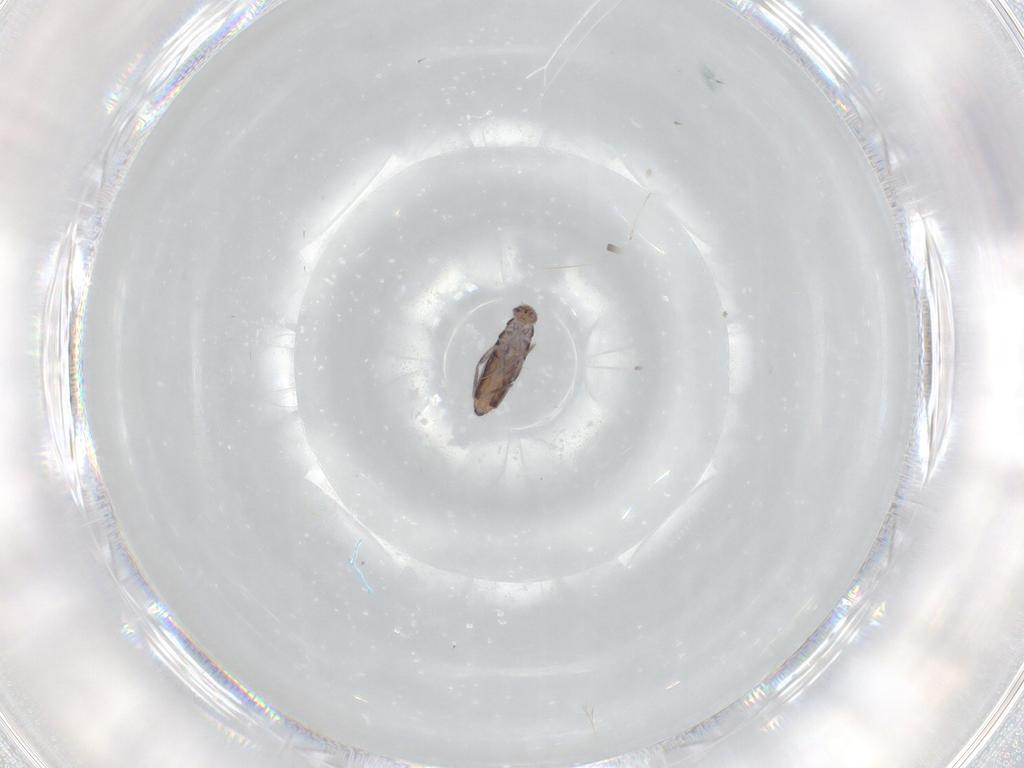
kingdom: Animalia
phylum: Arthropoda
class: Collembola
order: Entomobryomorpha
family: Entomobryidae
